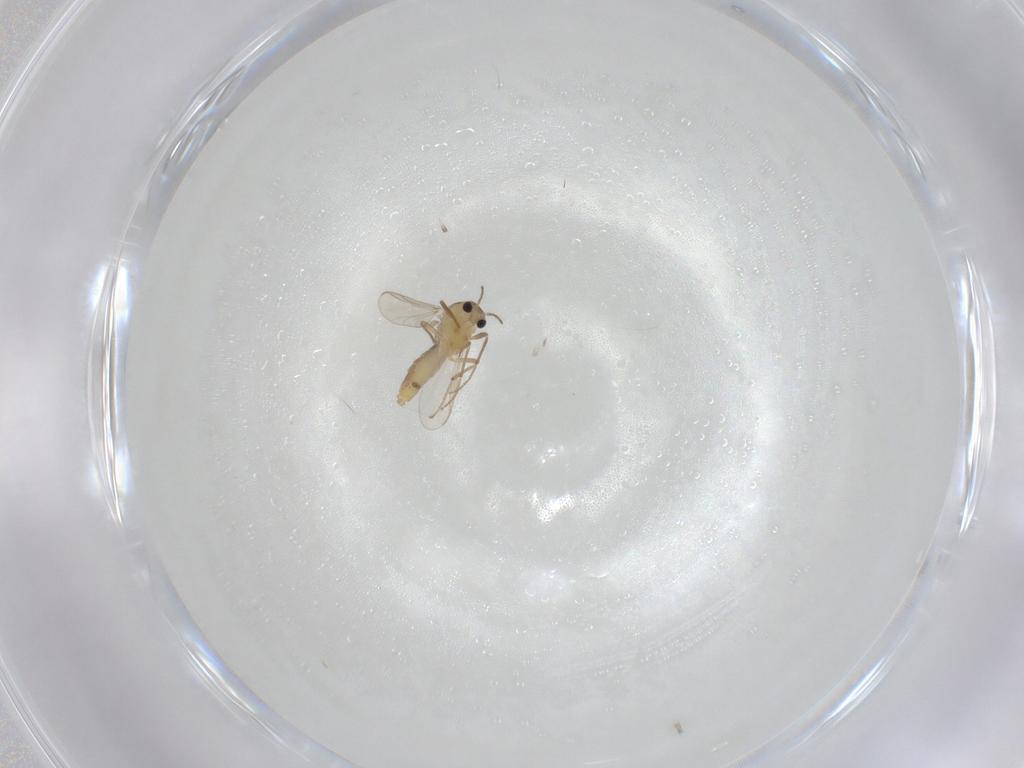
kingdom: Animalia
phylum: Arthropoda
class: Insecta
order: Diptera
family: Chironomidae
